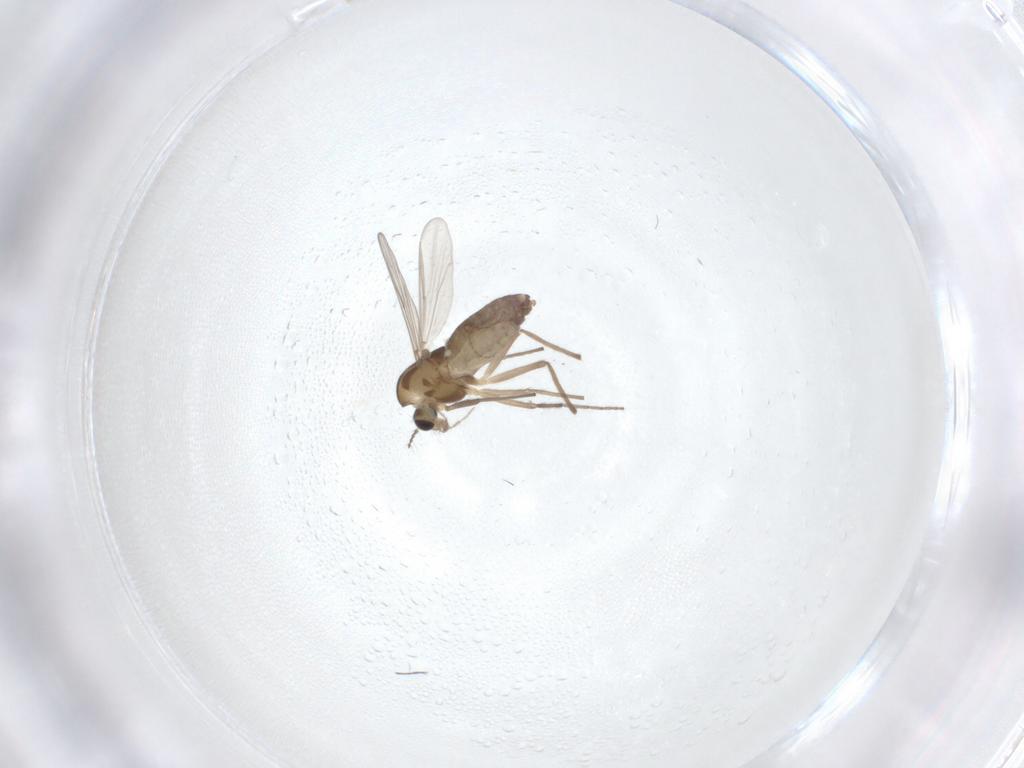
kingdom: Animalia
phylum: Arthropoda
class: Insecta
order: Diptera
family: Chironomidae
